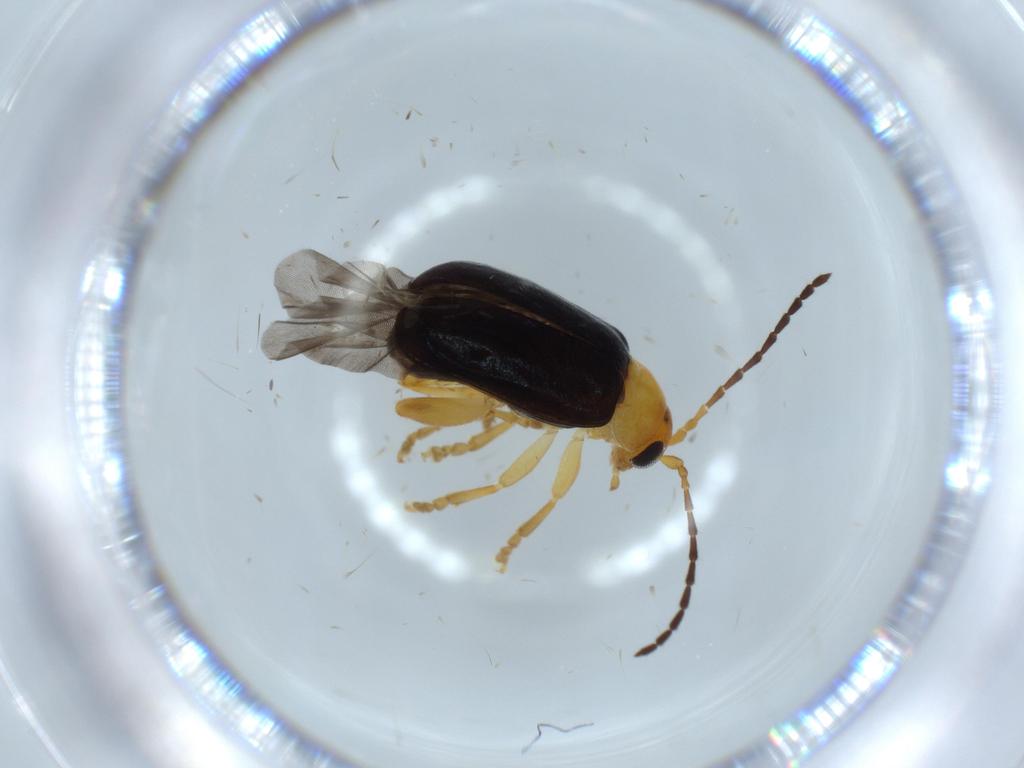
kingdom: Animalia
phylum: Arthropoda
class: Insecta
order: Coleoptera
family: Chrysomelidae
